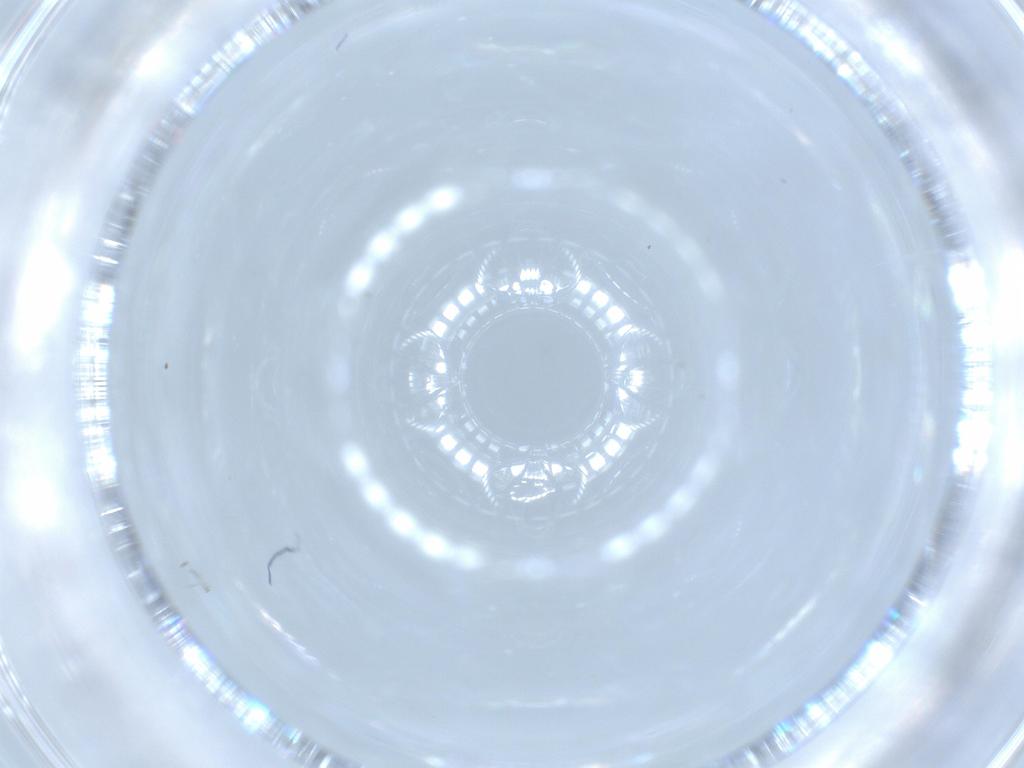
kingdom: Animalia
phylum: Arthropoda
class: Insecta
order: Diptera
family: Cecidomyiidae
